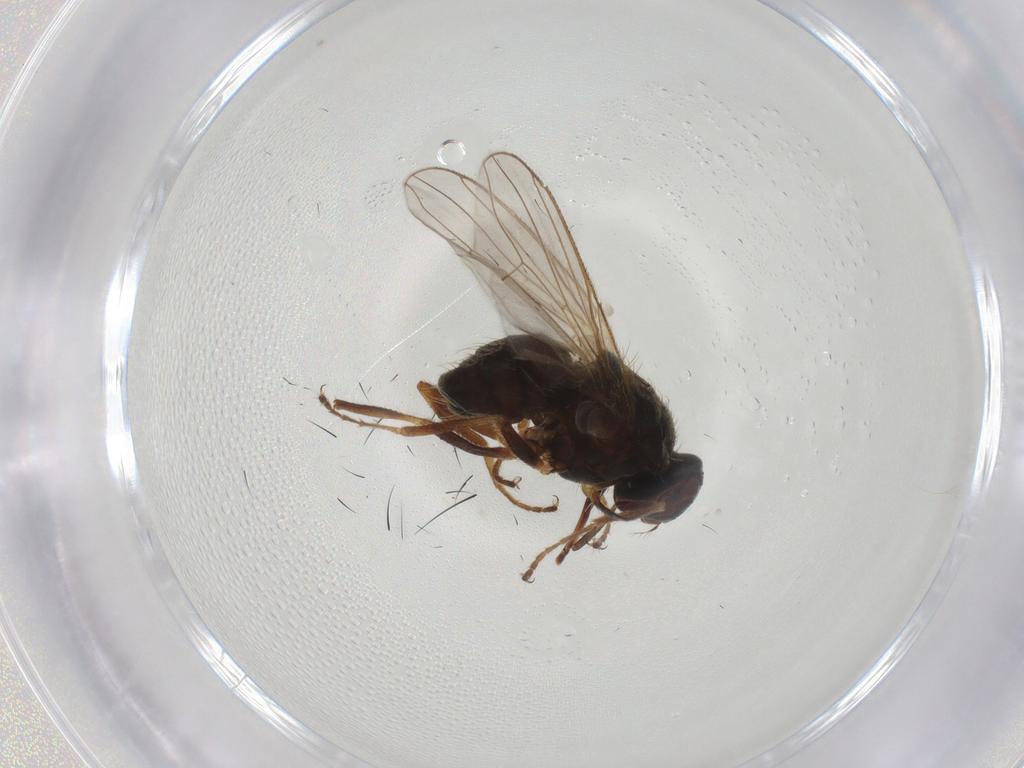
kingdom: Animalia
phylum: Arthropoda
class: Insecta
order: Diptera
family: Muscidae
